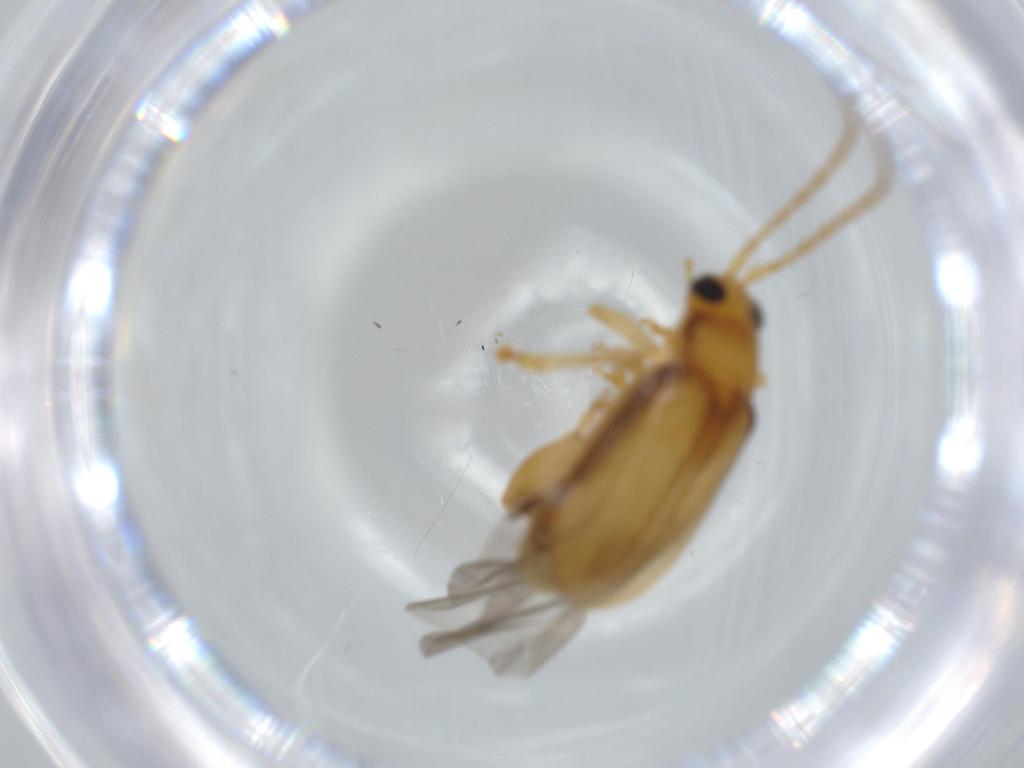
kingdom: Animalia
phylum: Arthropoda
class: Insecta
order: Coleoptera
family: Chrysomelidae
